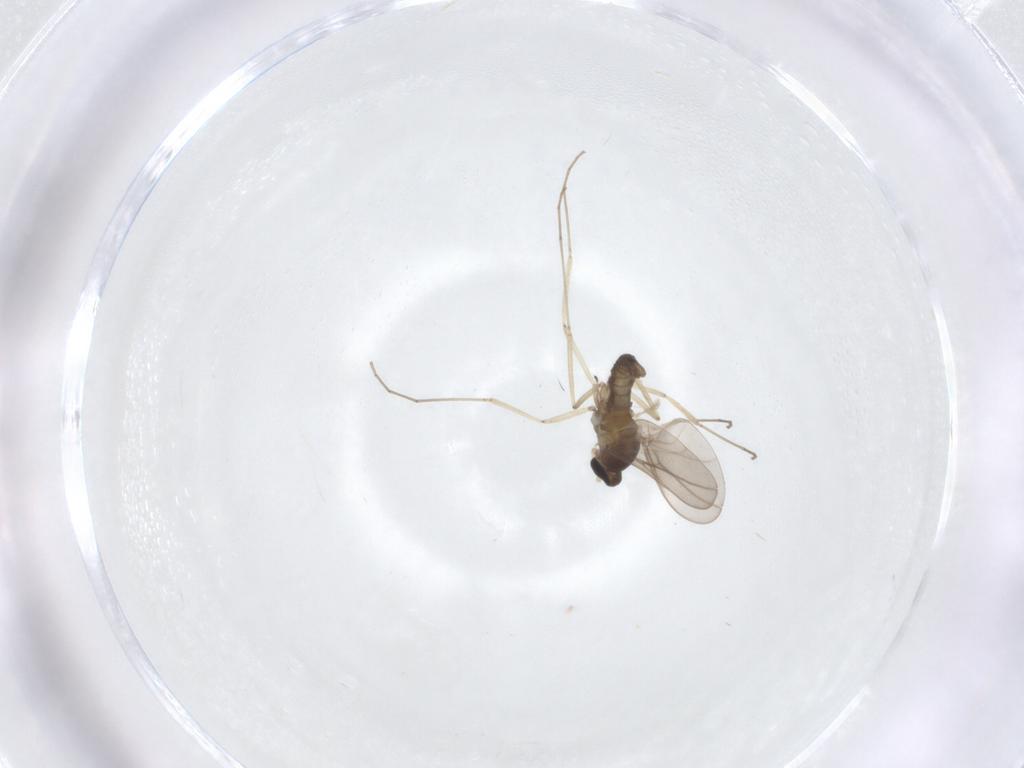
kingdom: Animalia
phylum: Arthropoda
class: Insecta
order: Diptera
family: Cecidomyiidae
